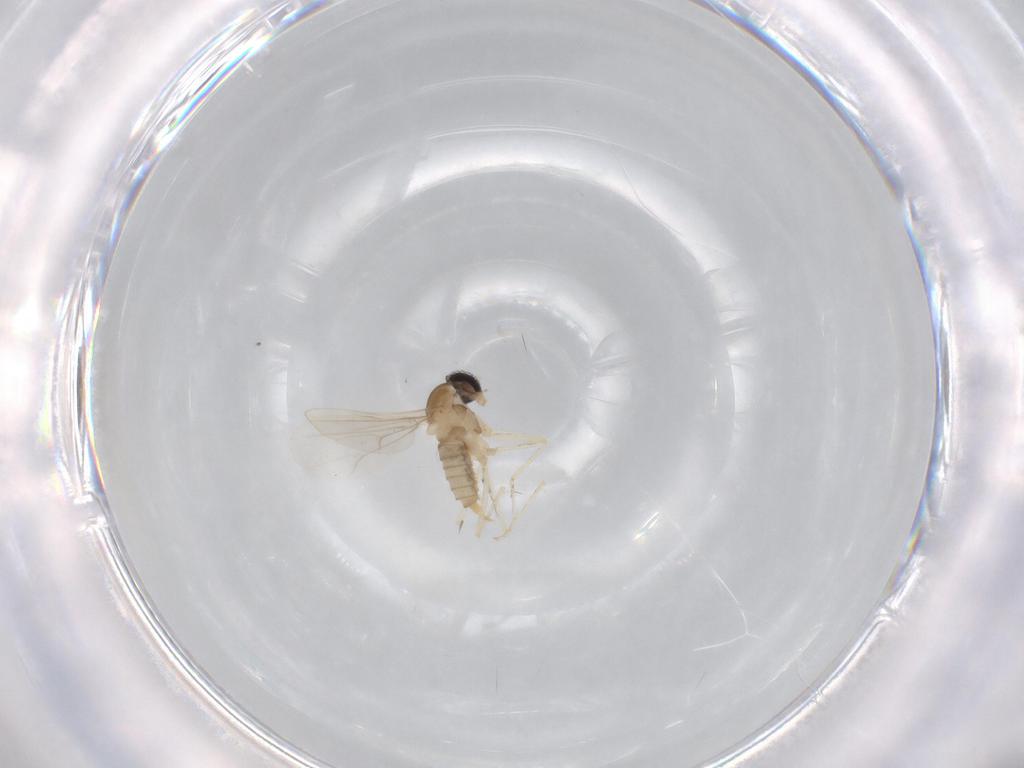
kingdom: Animalia
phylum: Arthropoda
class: Insecta
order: Diptera
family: Cecidomyiidae
